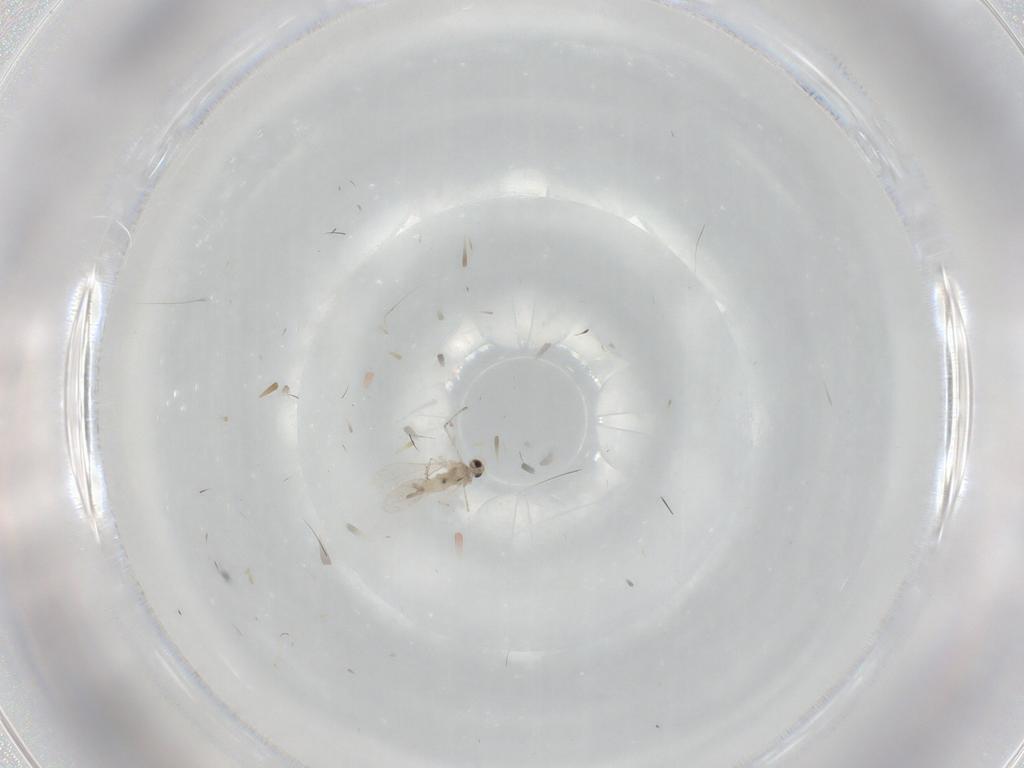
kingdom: Animalia
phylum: Arthropoda
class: Insecta
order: Diptera
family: Cecidomyiidae
